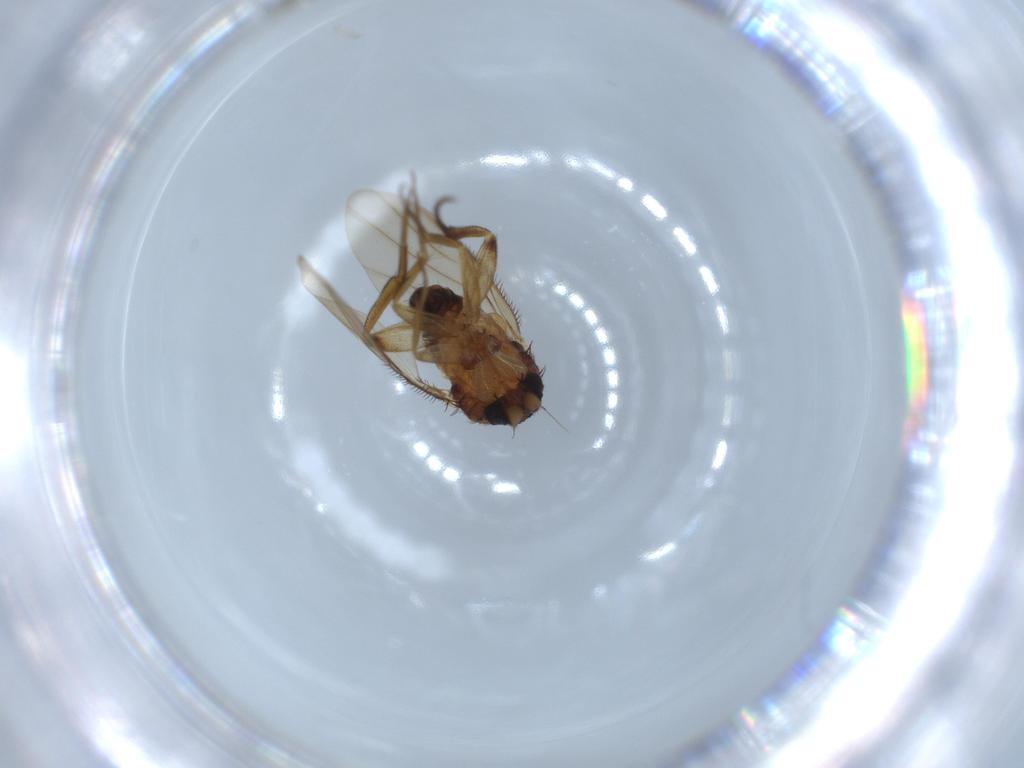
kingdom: Animalia
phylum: Arthropoda
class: Insecta
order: Diptera
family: Phoridae
